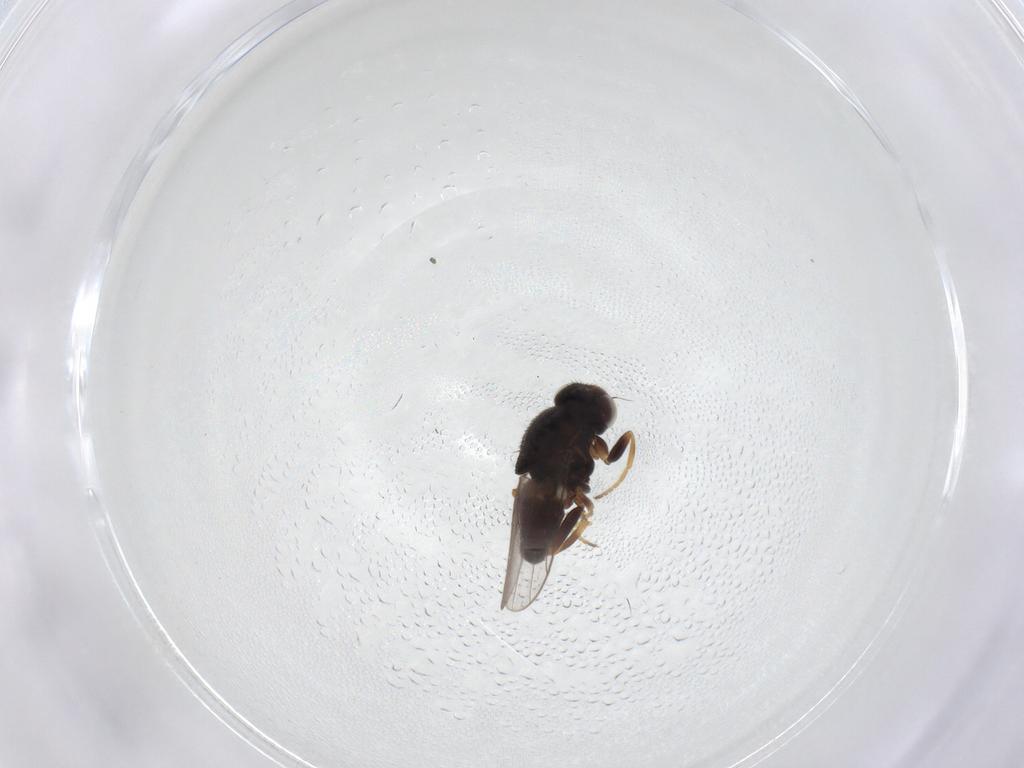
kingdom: Animalia
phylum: Arthropoda
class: Insecta
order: Diptera
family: Chloropidae
